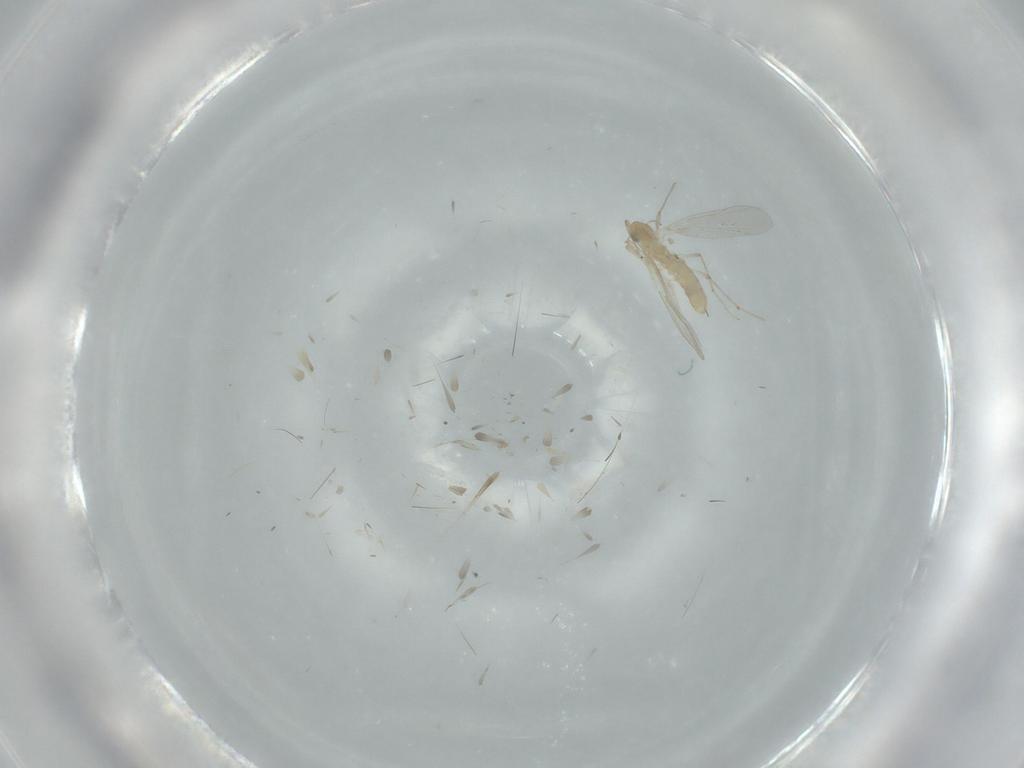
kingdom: Animalia
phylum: Arthropoda
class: Insecta
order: Diptera
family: Chironomidae
